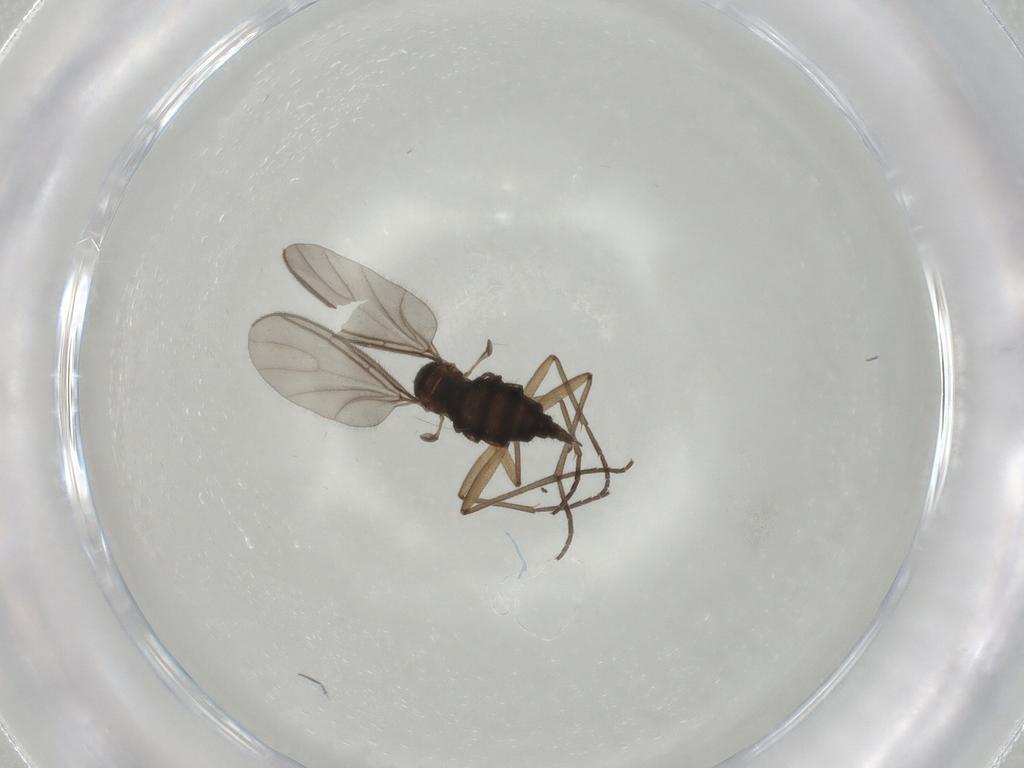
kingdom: Animalia
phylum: Arthropoda
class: Insecta
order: Diptera
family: Sciaridae
